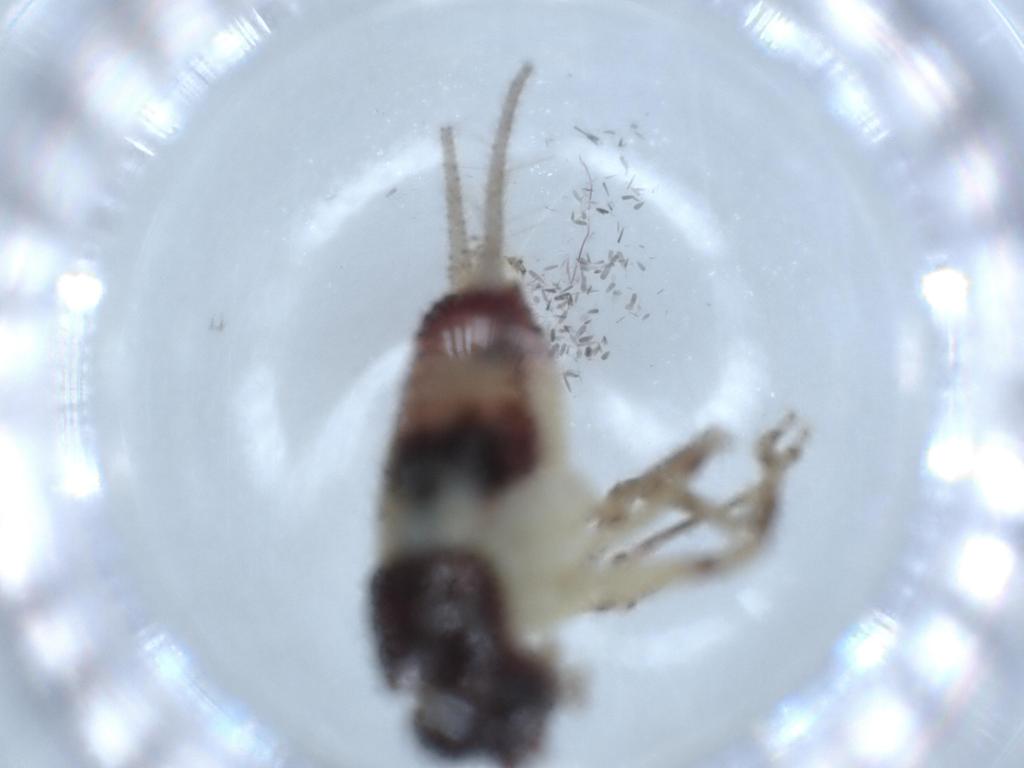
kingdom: Animalia
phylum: Arthropoda
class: Insecta
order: Orthoptera
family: Trigonidiidae
